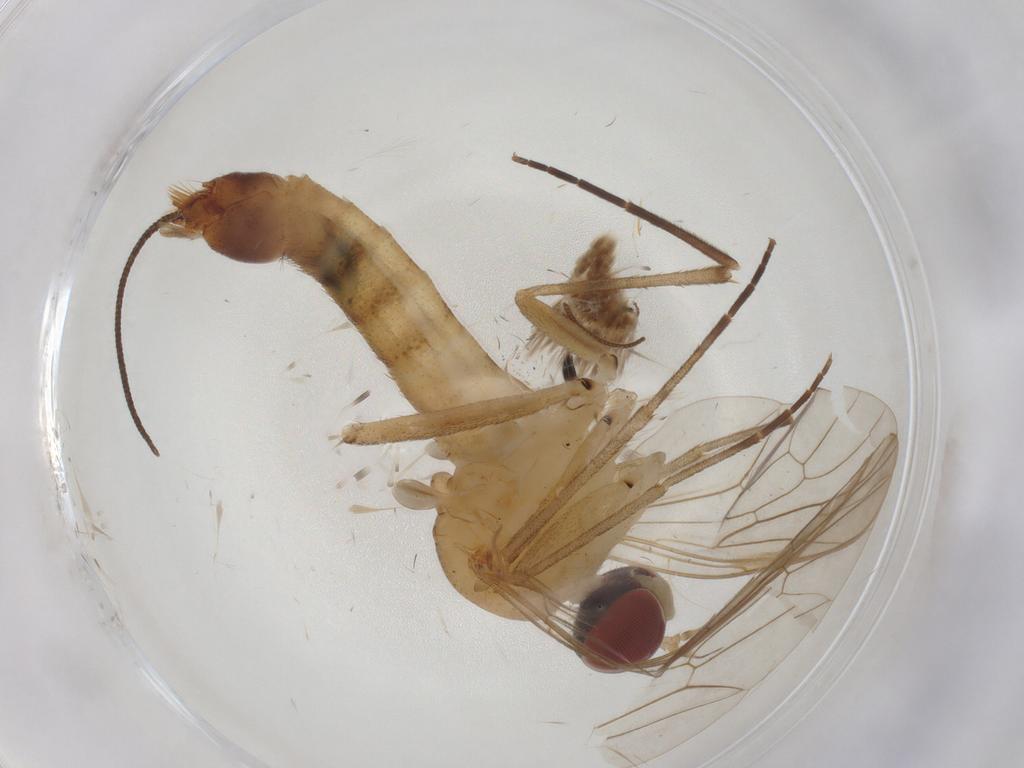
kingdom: Animalia
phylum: Arthropoda
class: Insecta
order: Diptera
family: Apsilocephalidae
